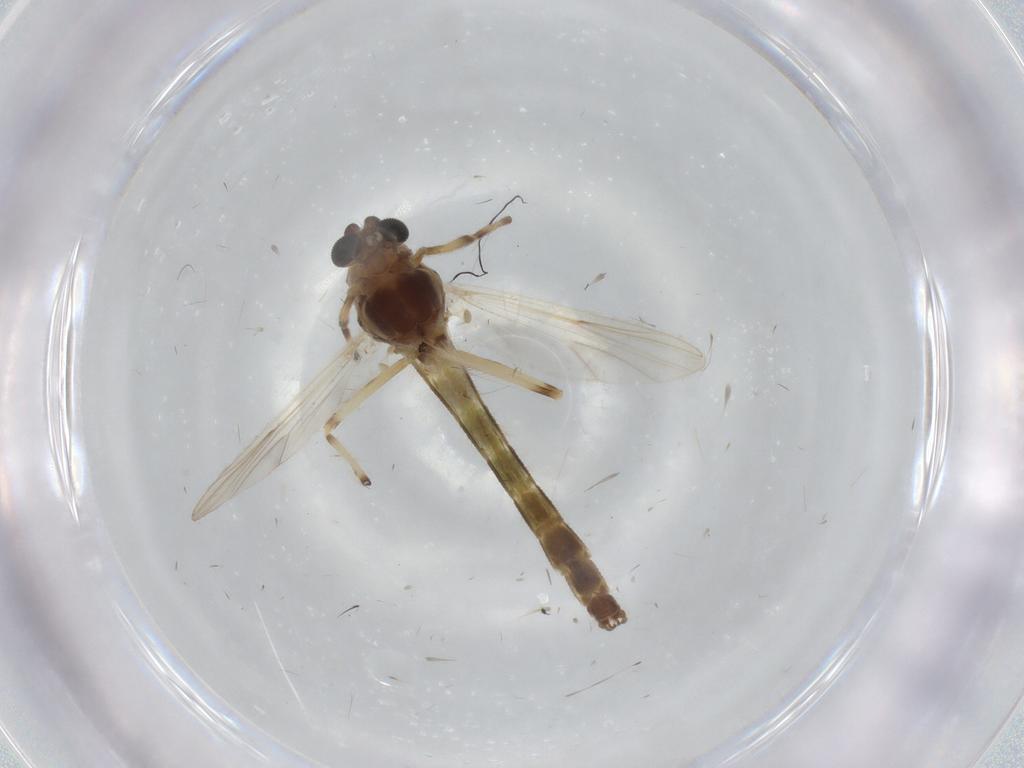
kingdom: Animalia
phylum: Arthropoda
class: Insecta
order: Diptera
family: Chironomidae
